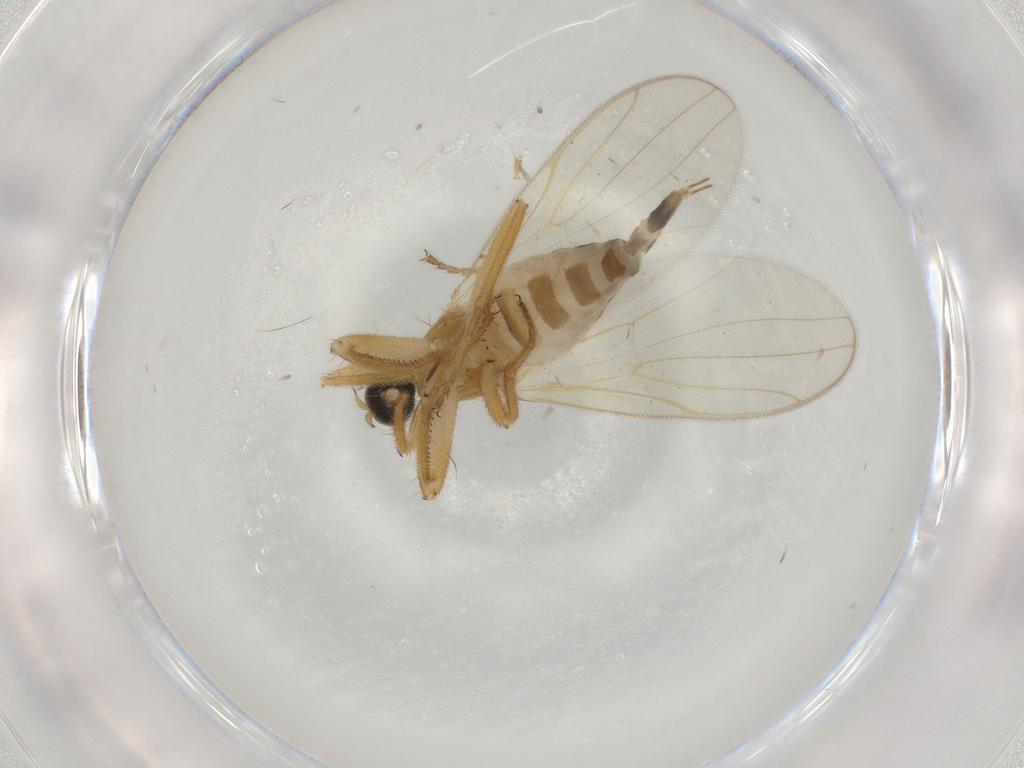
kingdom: Animalia
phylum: Arthropoda
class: Insecta
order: Diptera
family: Hybotidae
